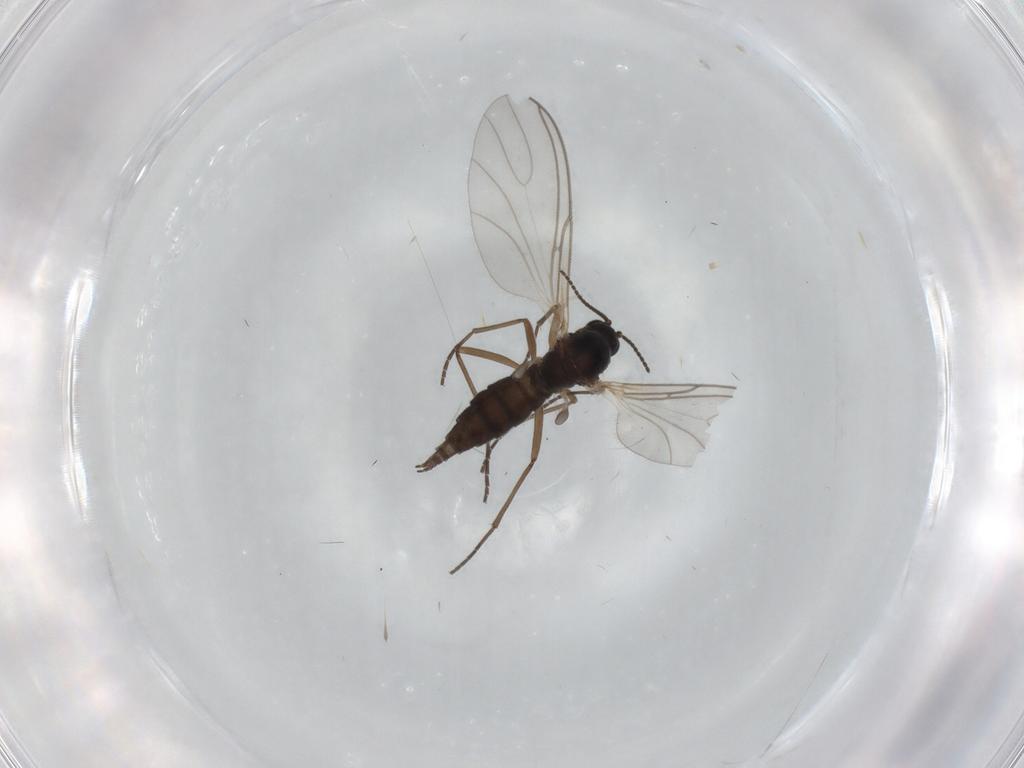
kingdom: Animalia
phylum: Arthropoda
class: Insecta
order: Diptera
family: Sciaridae
